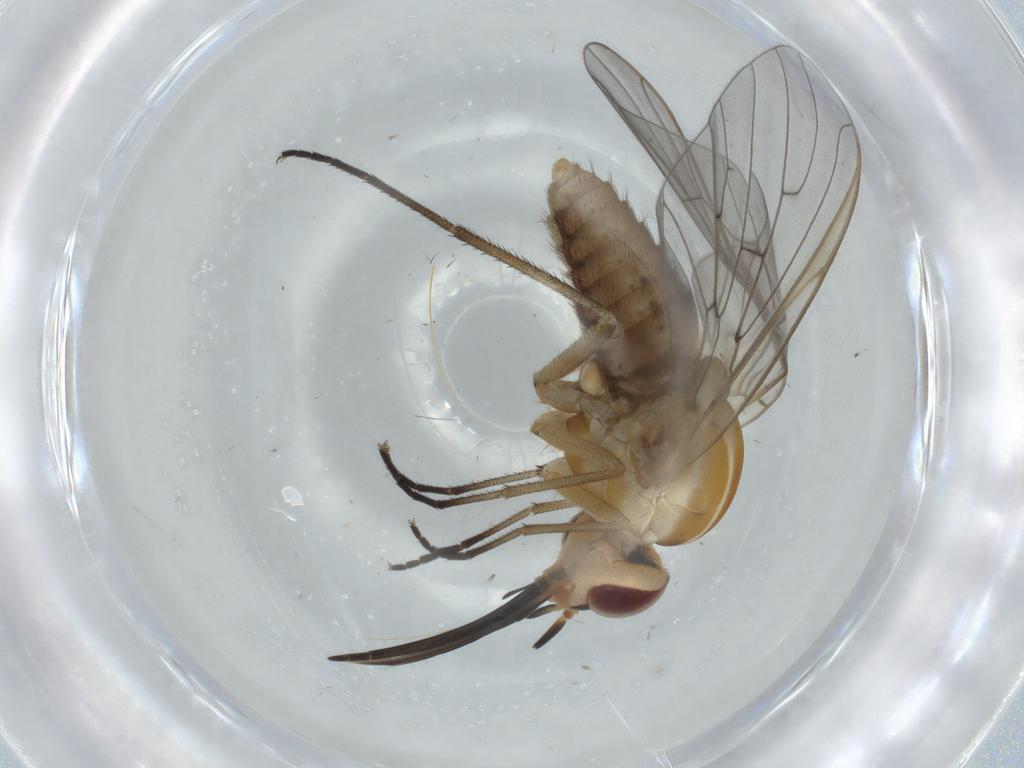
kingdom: Animalia
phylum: Arthropoda
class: Insecta
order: Diptera
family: Bombyliidae
